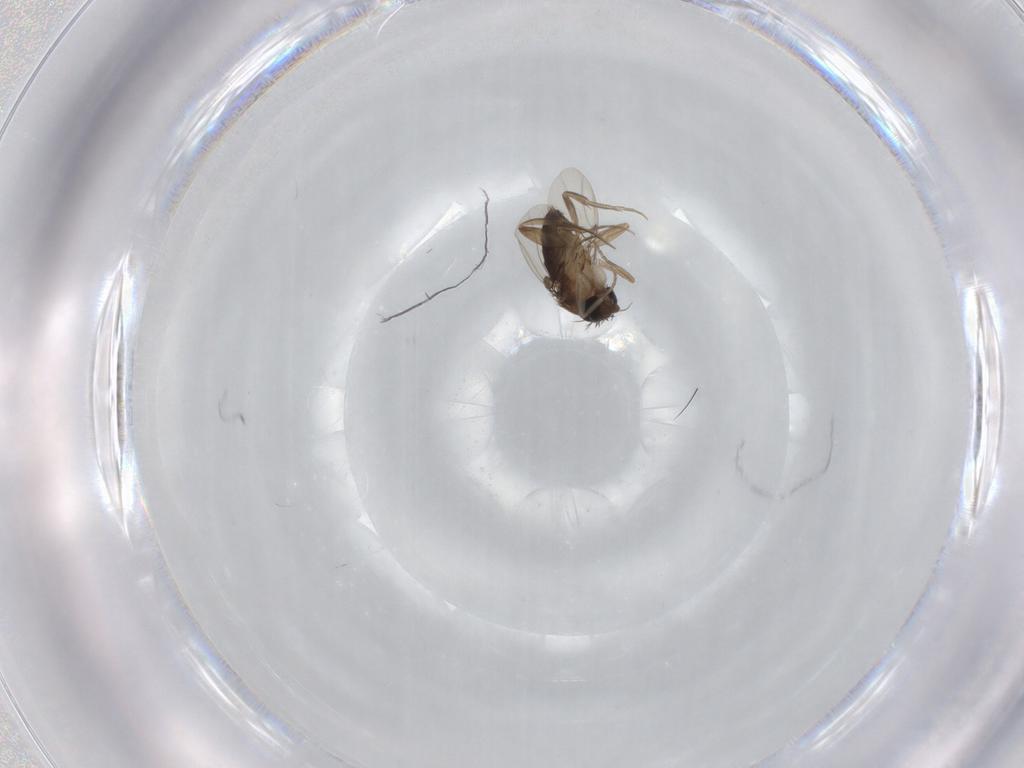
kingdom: Animalia
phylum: Arthropoda
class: Insecta
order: Diptera
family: Phoridae
